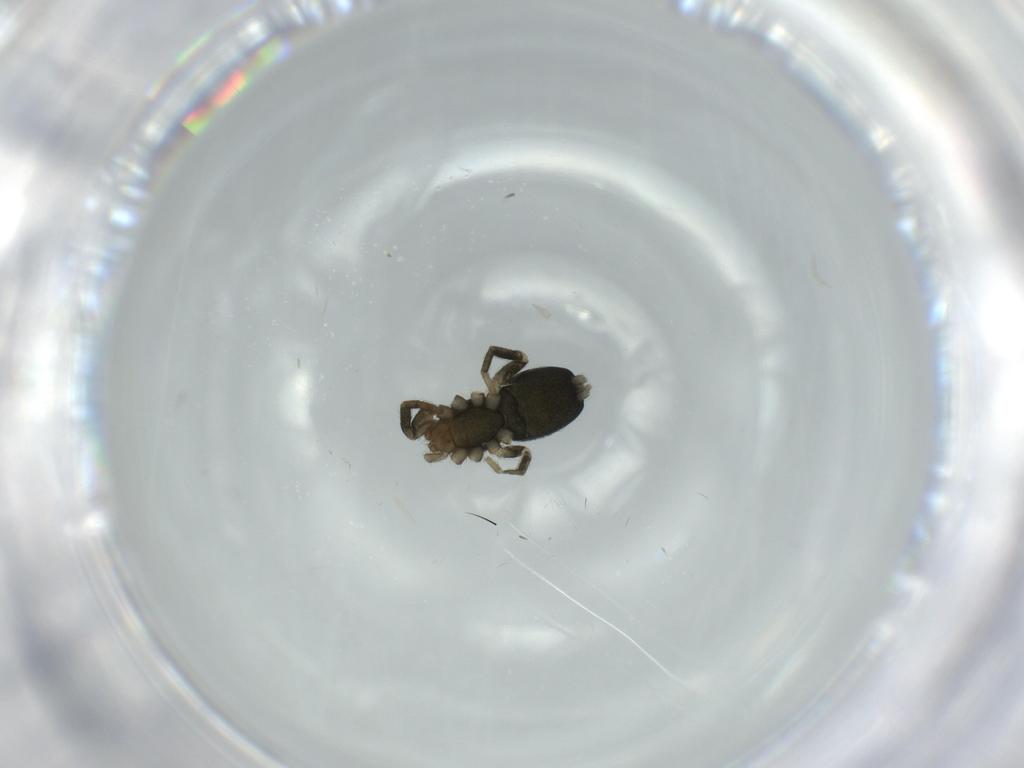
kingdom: Animalia
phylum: Arthropoda
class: Arachnida
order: Araneae
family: Gnaphosidae
